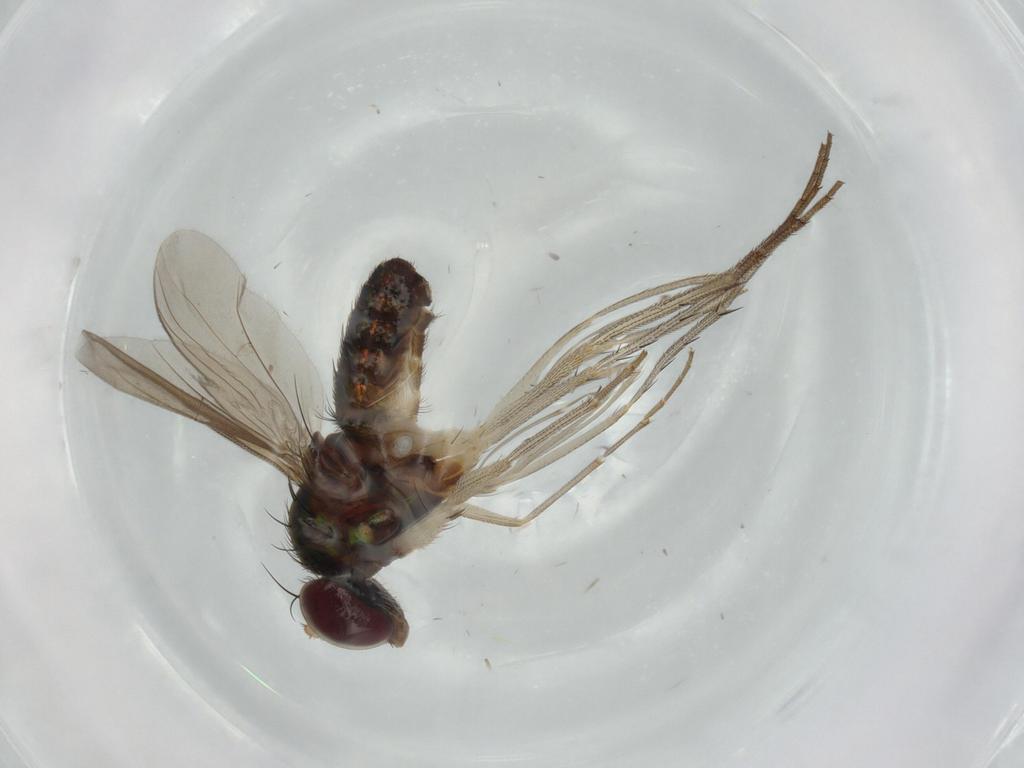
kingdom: Animalia
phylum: Arthropoda
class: Insecta
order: Diptera
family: Dolichopodidae
